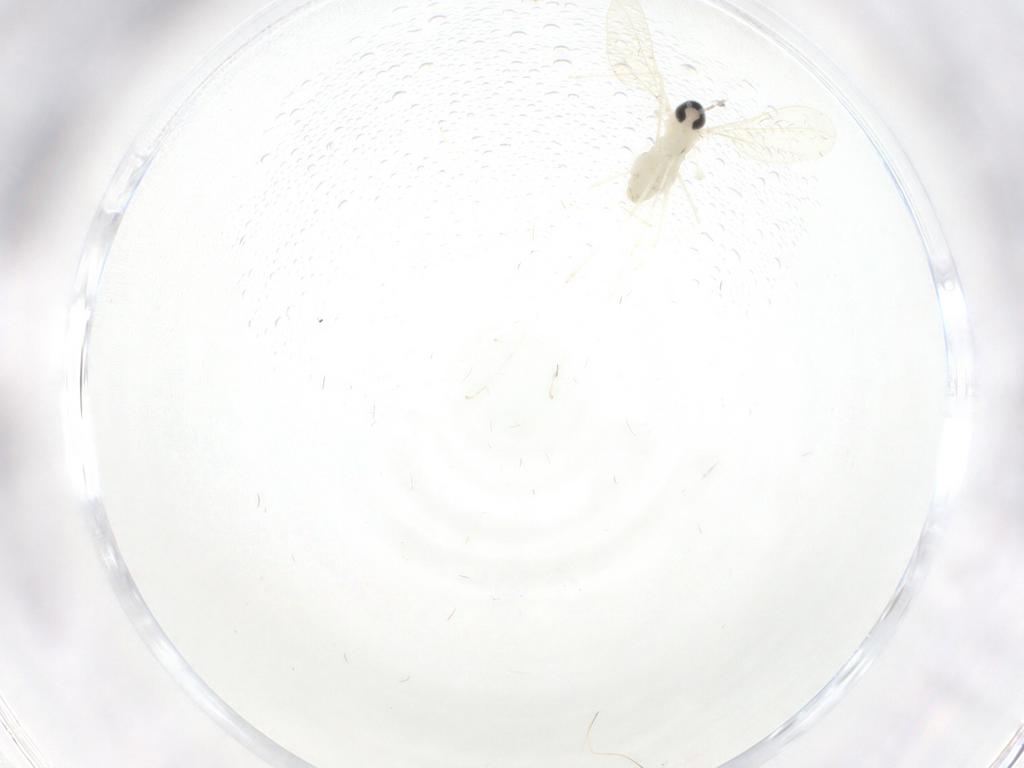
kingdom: Animalia
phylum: Arthropoda
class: Insecta
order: Diptera
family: Cecidomyiidae
